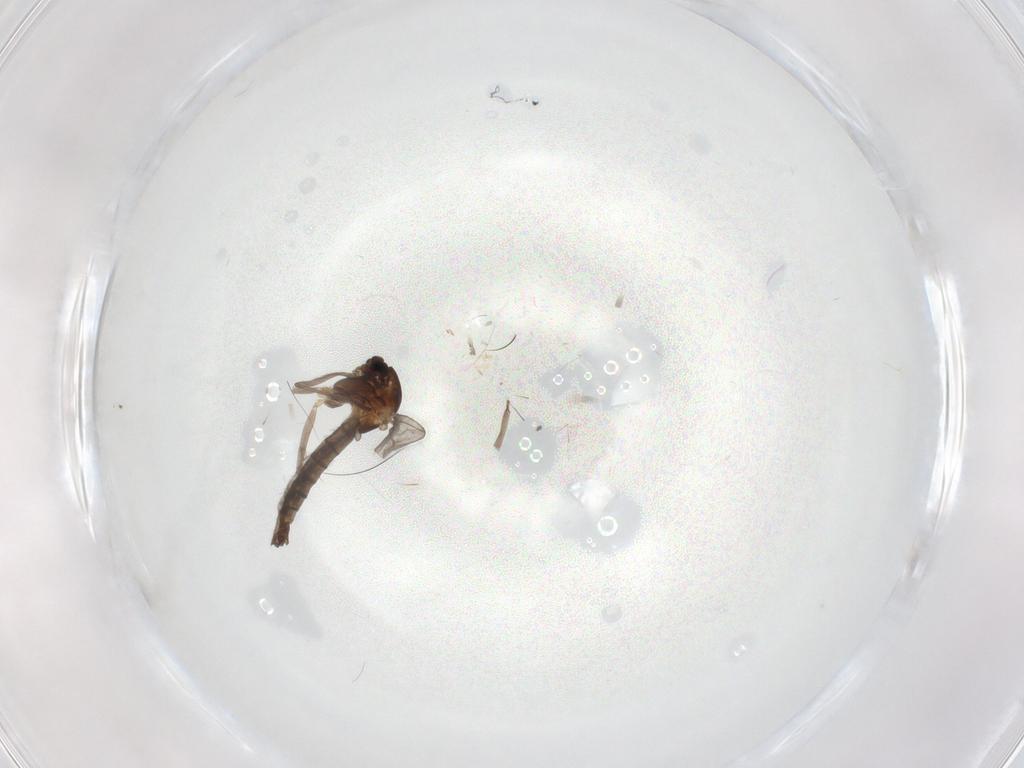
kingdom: Animalia
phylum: Arthropoda
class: Insecta
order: Diptera
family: Chironomidae
